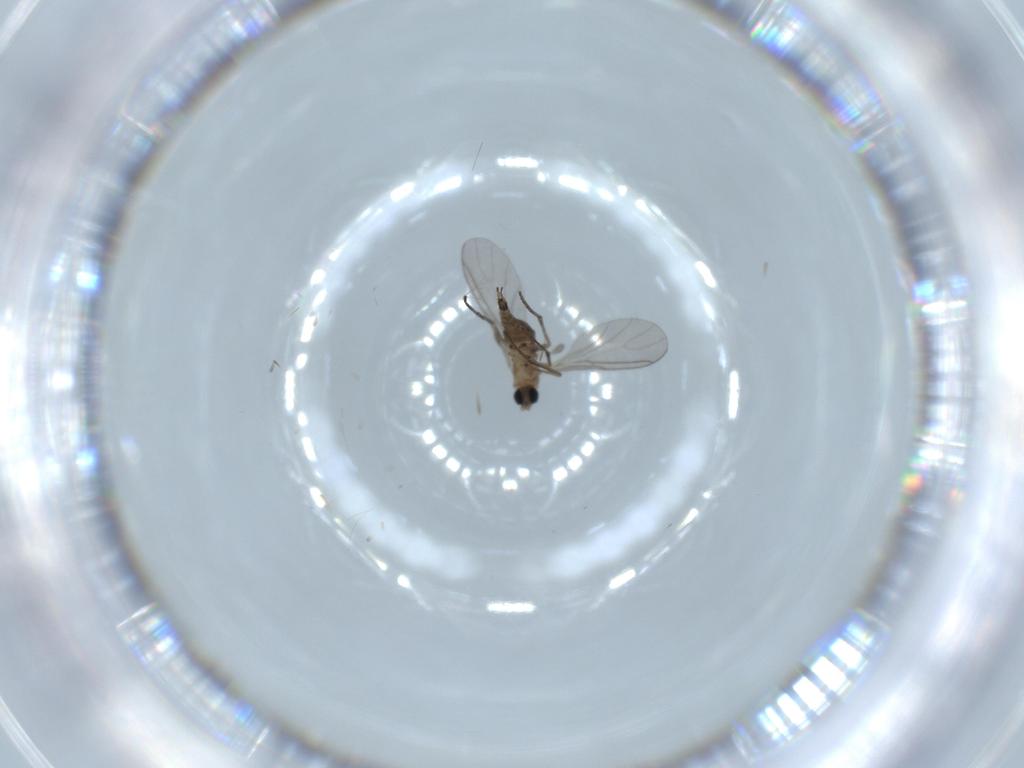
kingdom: Animalia
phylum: Arthropoda
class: Insecta
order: Diptera
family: Sciaridae
